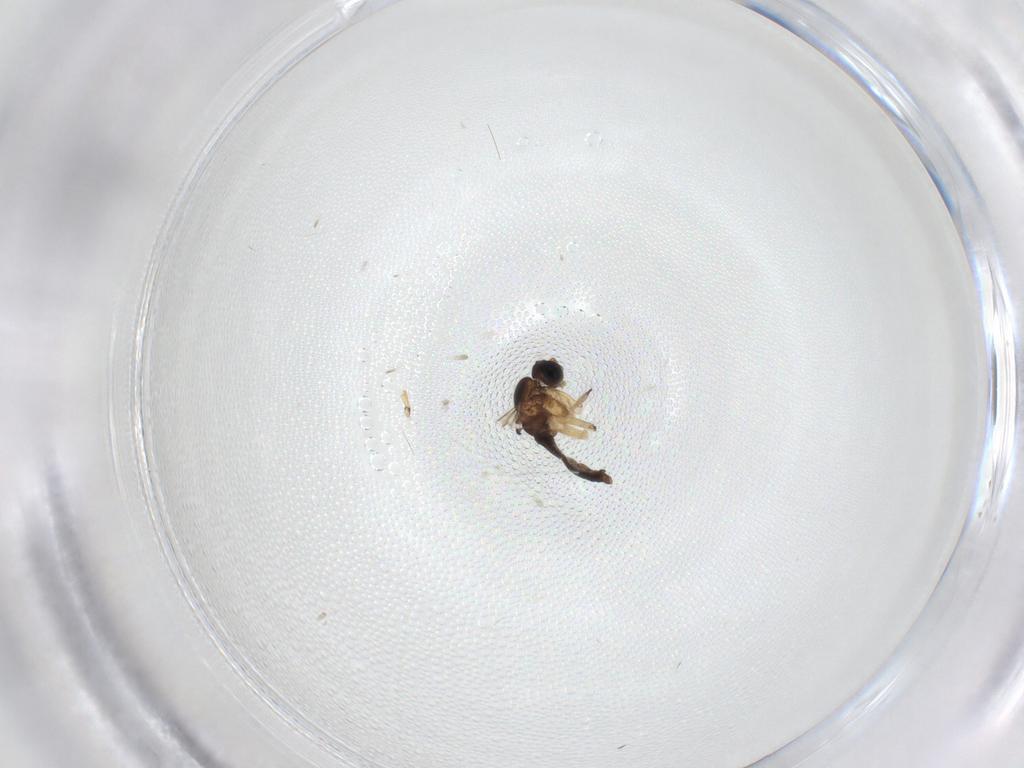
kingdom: Animalia
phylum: Arthropoda
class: Insecta
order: Diptera
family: Sciaridae
